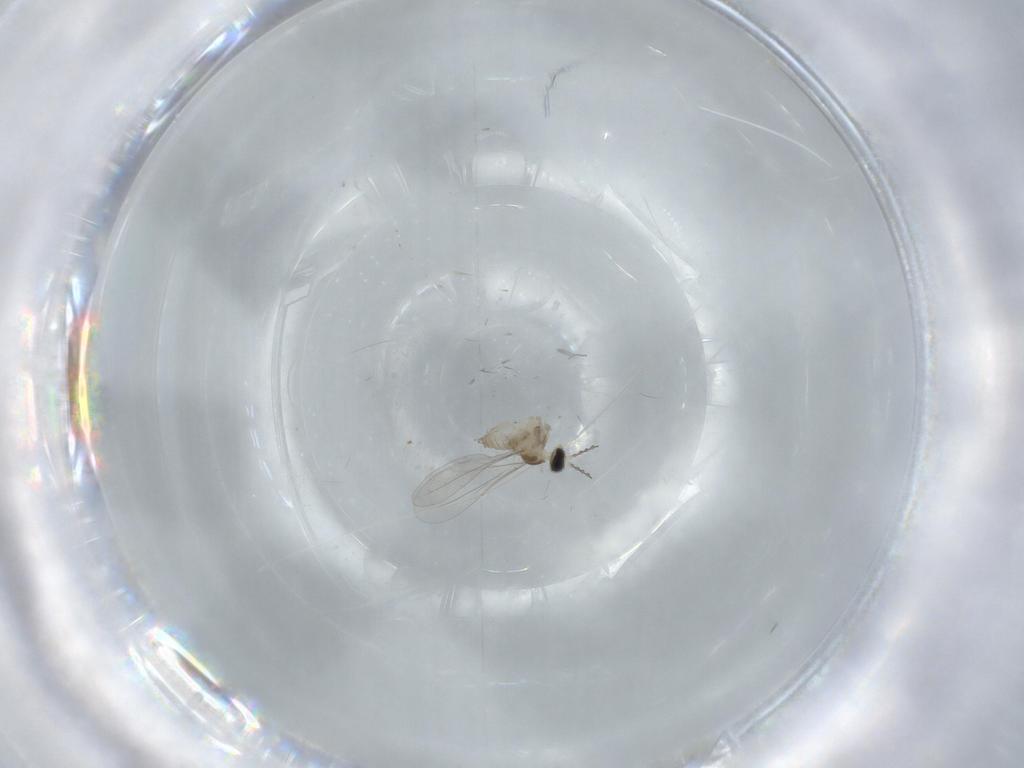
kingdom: Animalia
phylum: Arthropoda
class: Insecta
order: Diptera
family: Cecidomyiidae
